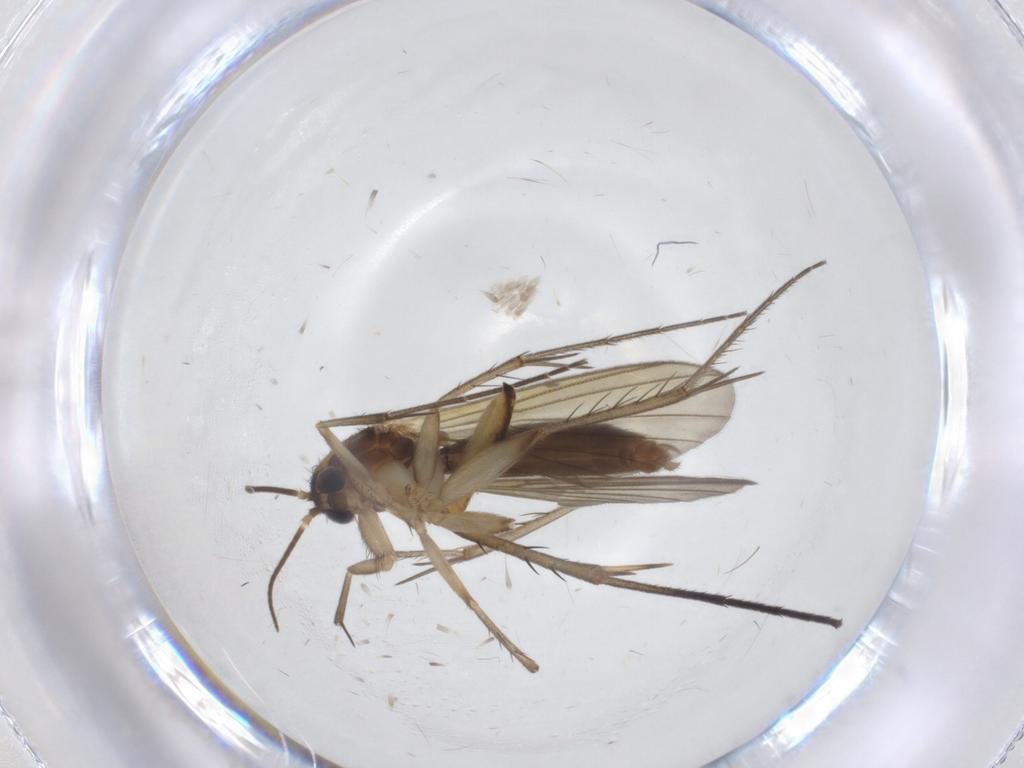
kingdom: Animalia
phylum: Arthropoda
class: Insecta
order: Diptera
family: Mycetophilidae
